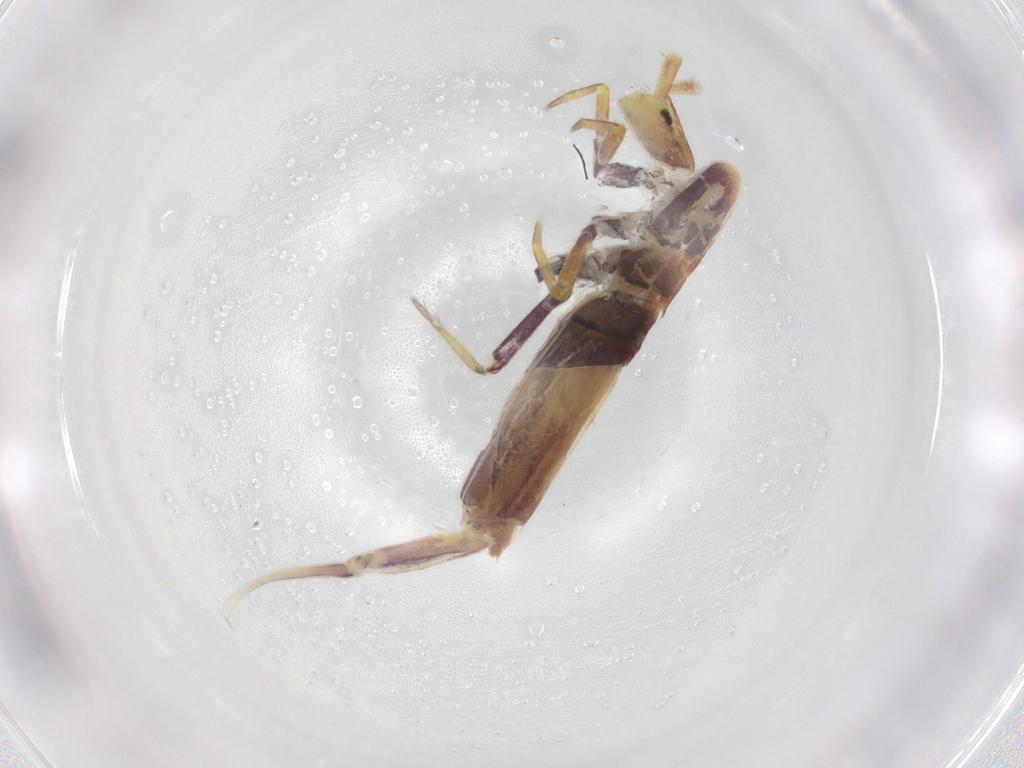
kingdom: Animalia
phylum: Arthropoda
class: Collembola
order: Entomobryomorpha
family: Entomobryidae
